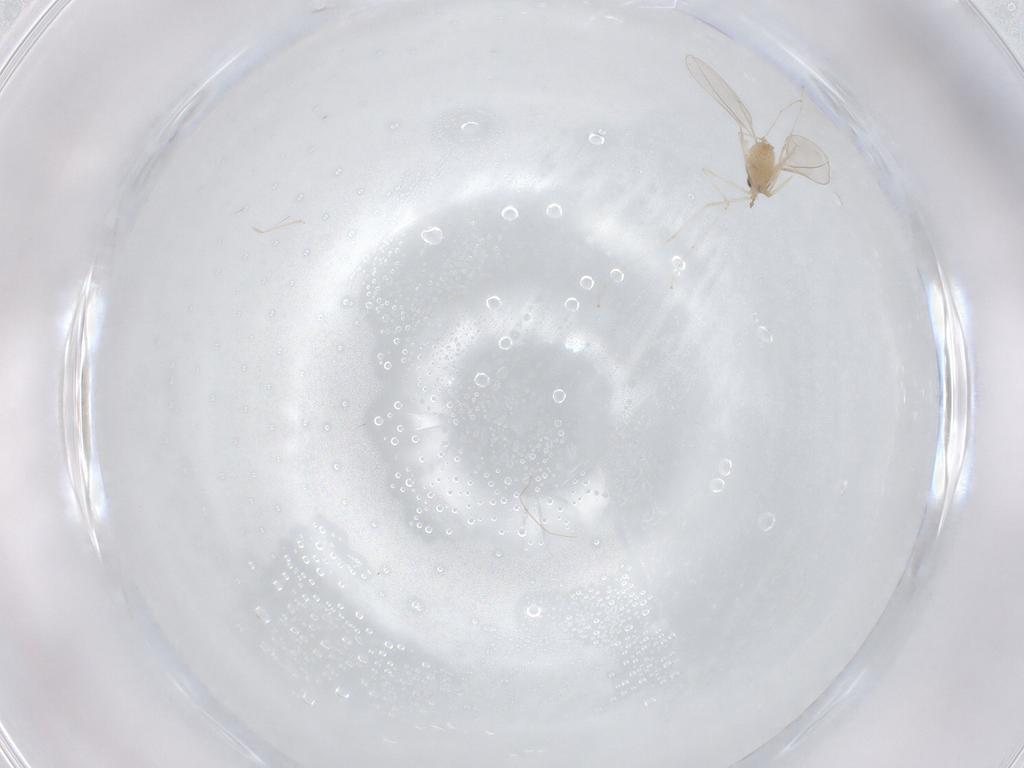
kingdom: Animalia
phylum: Arthropoda
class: Insecta
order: Diptera
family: Cecidomyiidae
